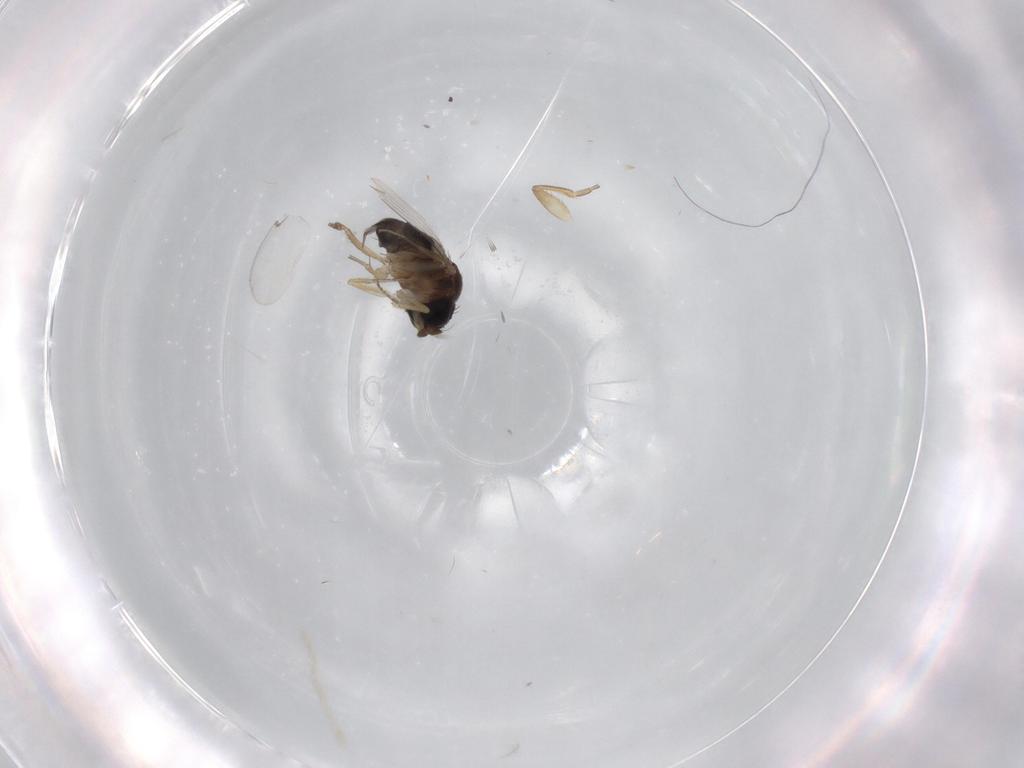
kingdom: Animalia
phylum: Arthropoda
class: Insecta
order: Diptera
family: Phoridae
